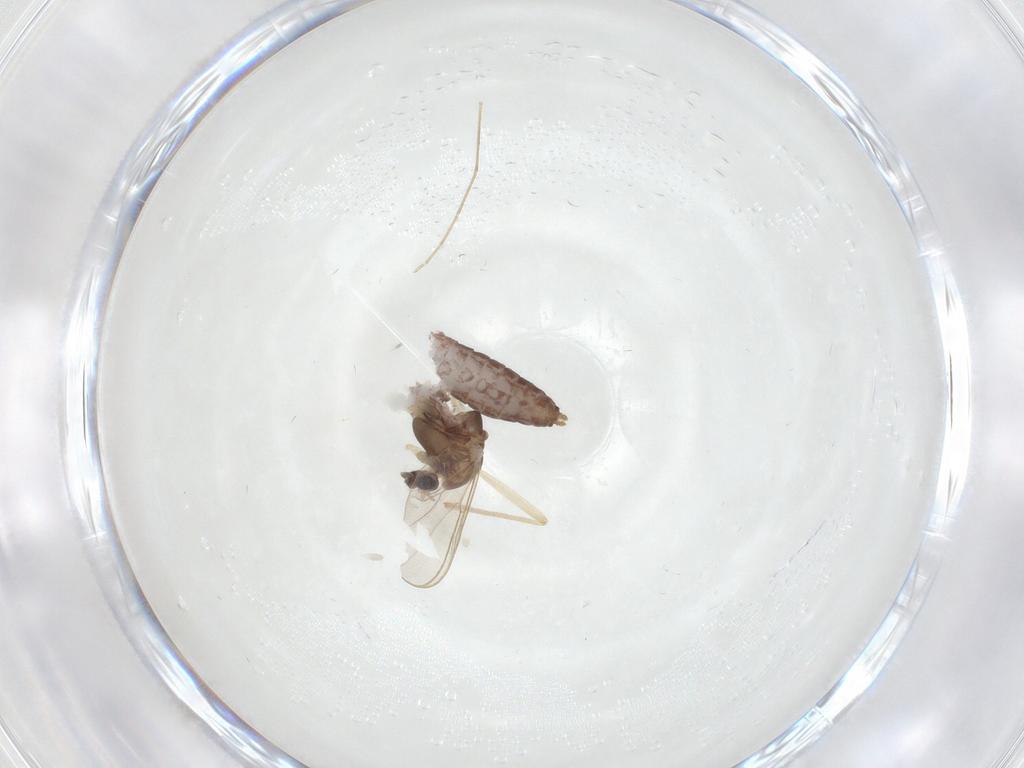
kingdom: Animalia
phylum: Arthropoda
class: Insecta
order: Diptera
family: Chironomidae
